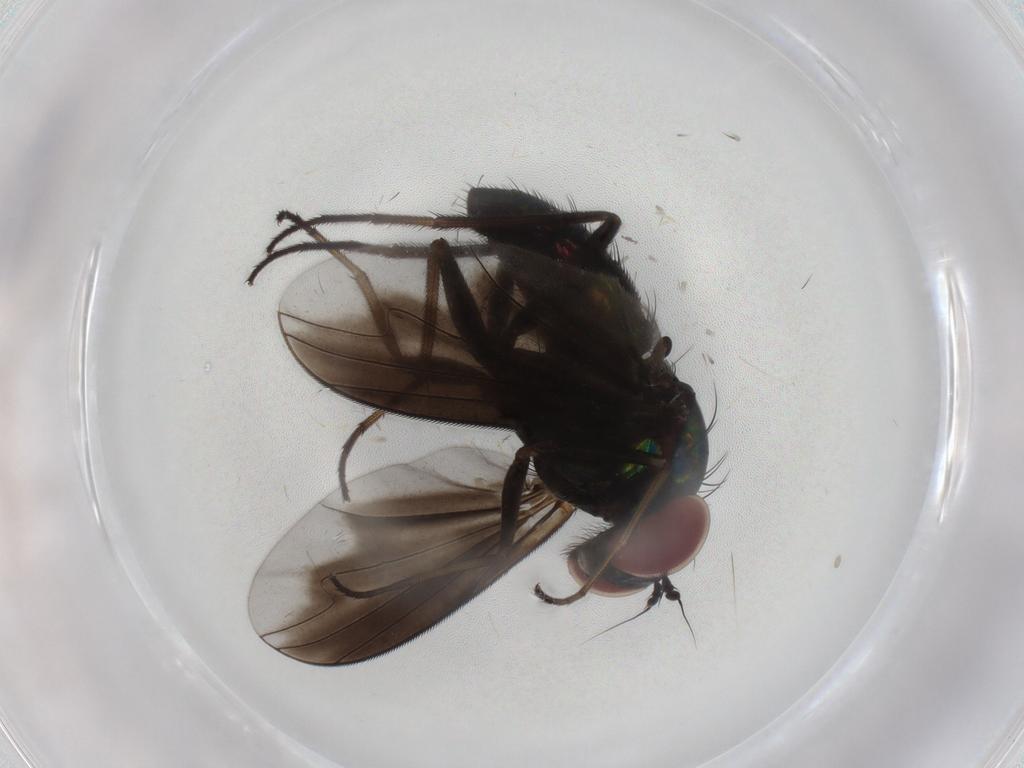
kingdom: Animalia
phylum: Arthropoda
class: Insecta
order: Diptera
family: Dolichopodidae
